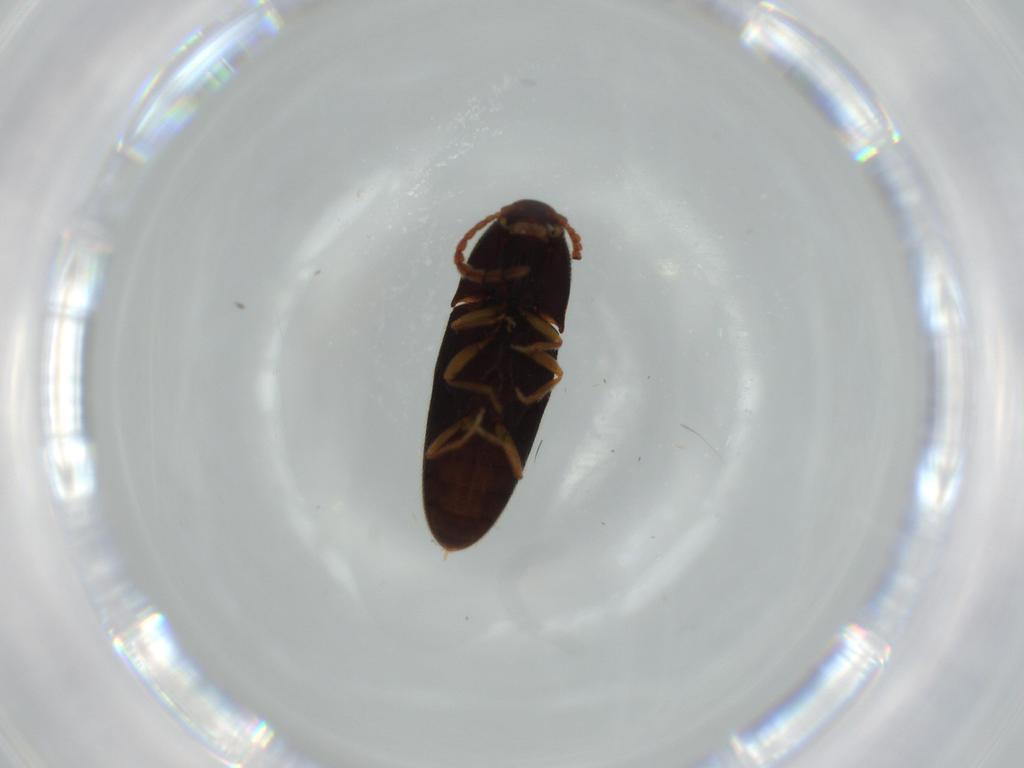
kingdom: Animalia
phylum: Arthropoda
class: Insecta
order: Coleoptera
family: Elateridae
